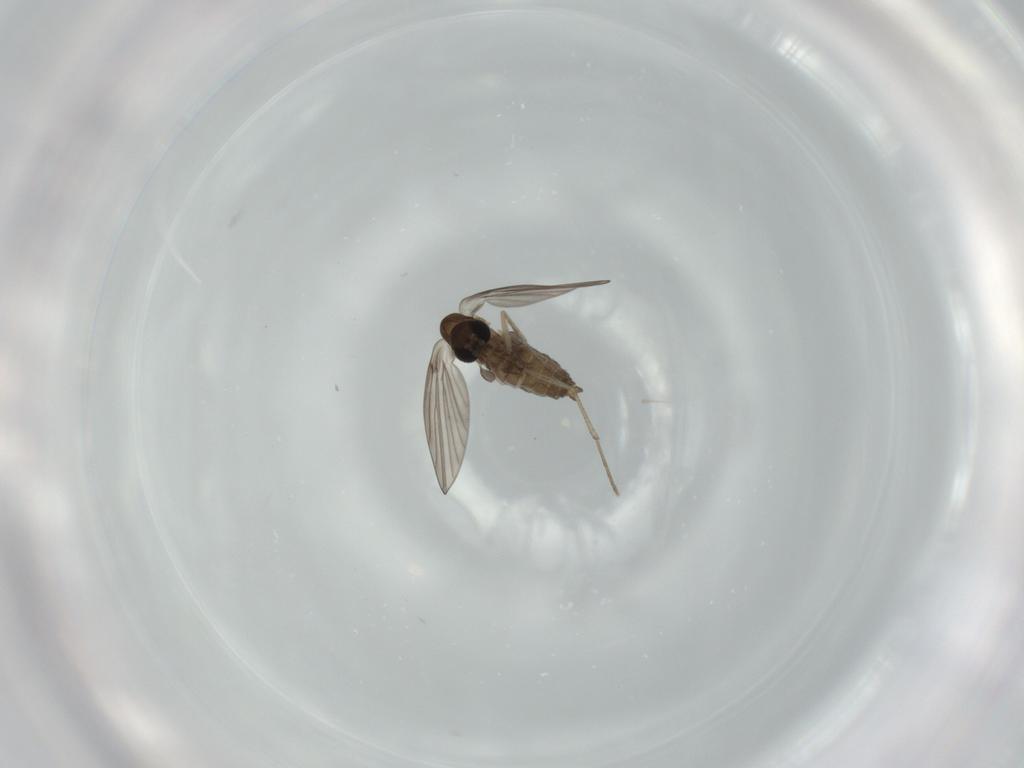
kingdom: Animalia
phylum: Arthropoda
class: Insecta
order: Diptera
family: Psychodidae
